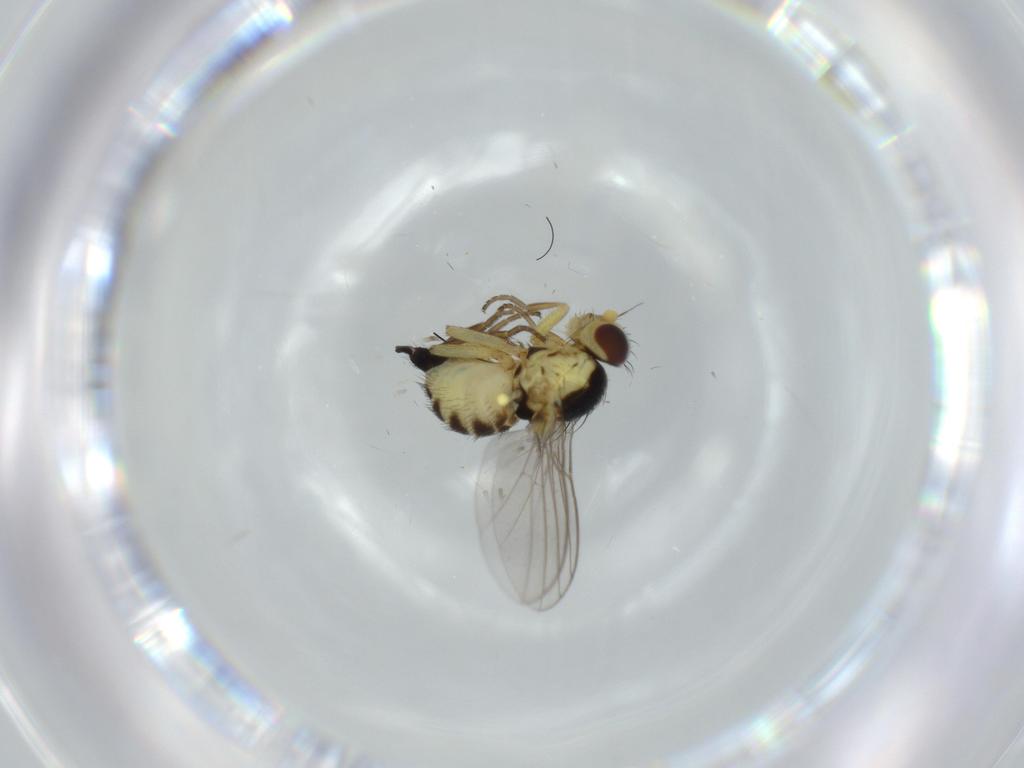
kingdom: Animalia
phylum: Arthropoda
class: Insecta
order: Diptera
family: Agromyzidae
